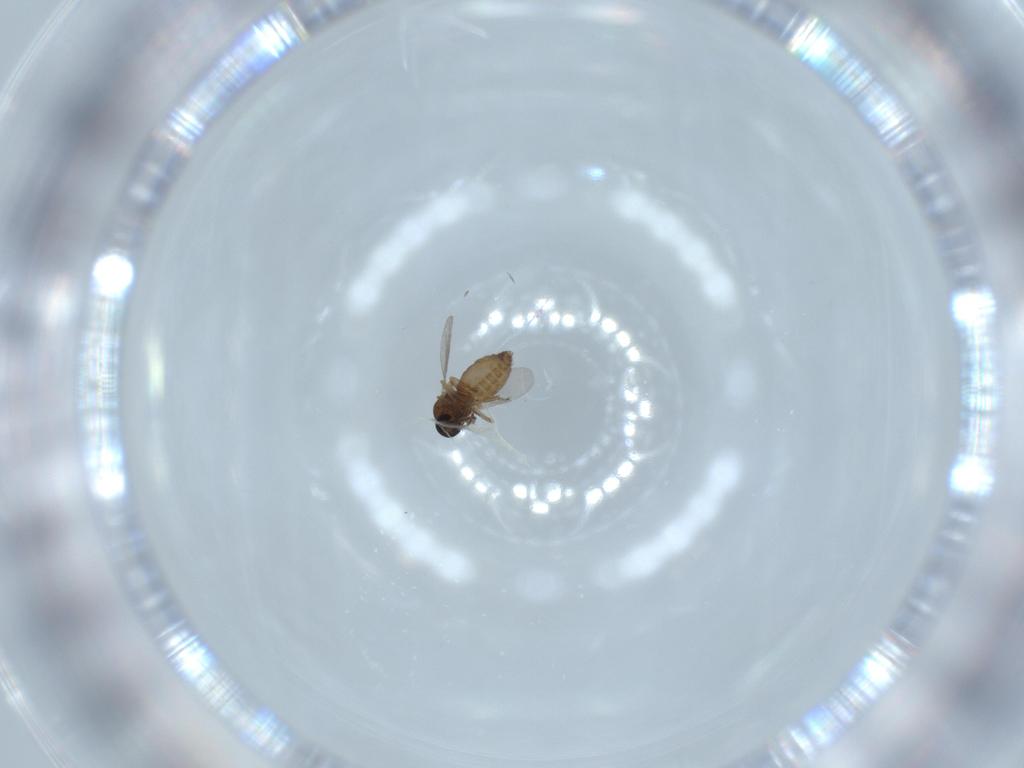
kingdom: Animalia
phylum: Arthropoda
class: Insecta
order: Diptera
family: Ceratopogonidae
